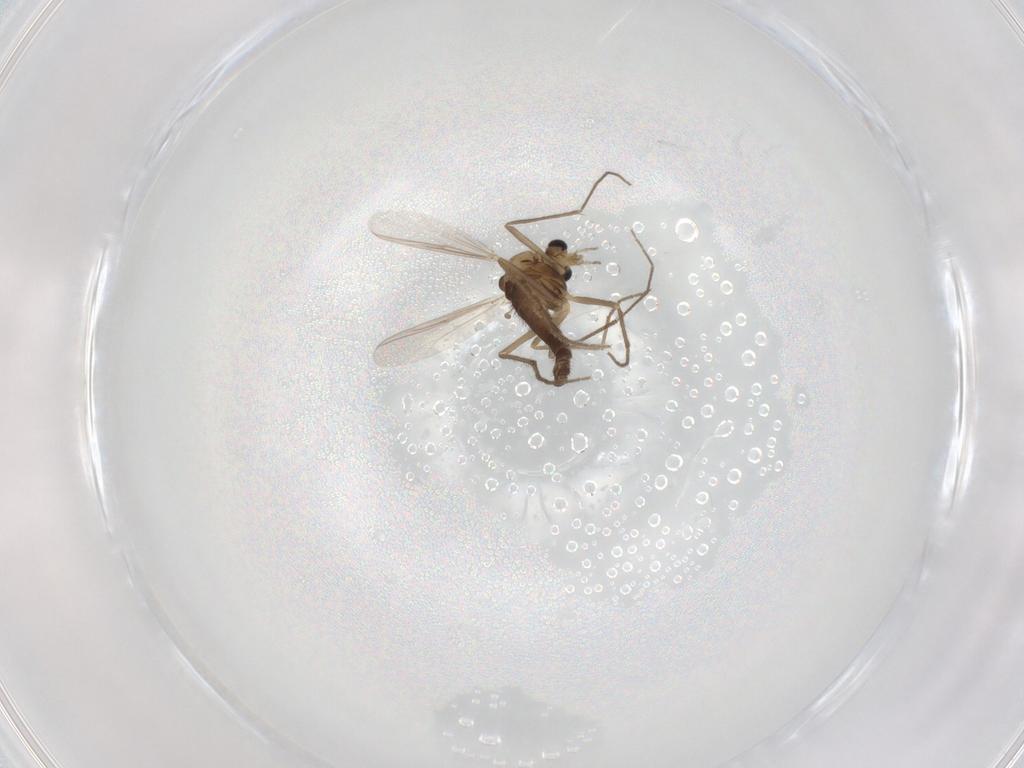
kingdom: Animalia
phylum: Arthropoda
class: Insecta
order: Diptera
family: Chironomidae
